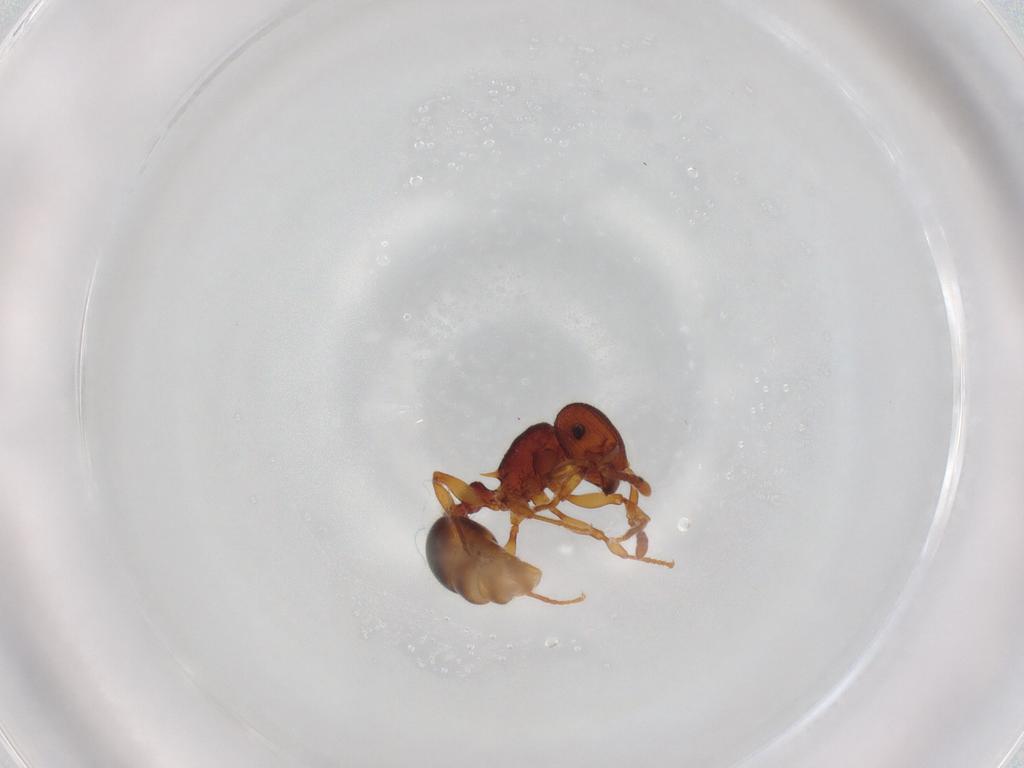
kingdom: Animalia
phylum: Arthropoda
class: Insecta
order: Hymenoptera
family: Formicidae
